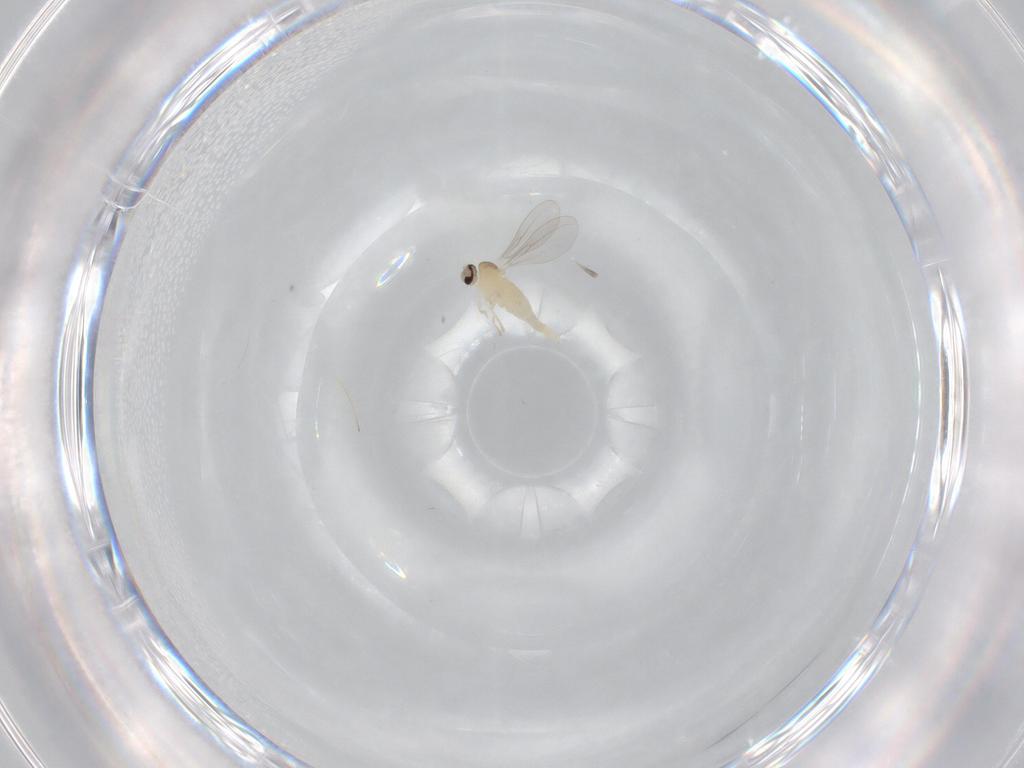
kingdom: Animalia
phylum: Arthropoda
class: Insecta
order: Diptera
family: Cecidomyiidae
